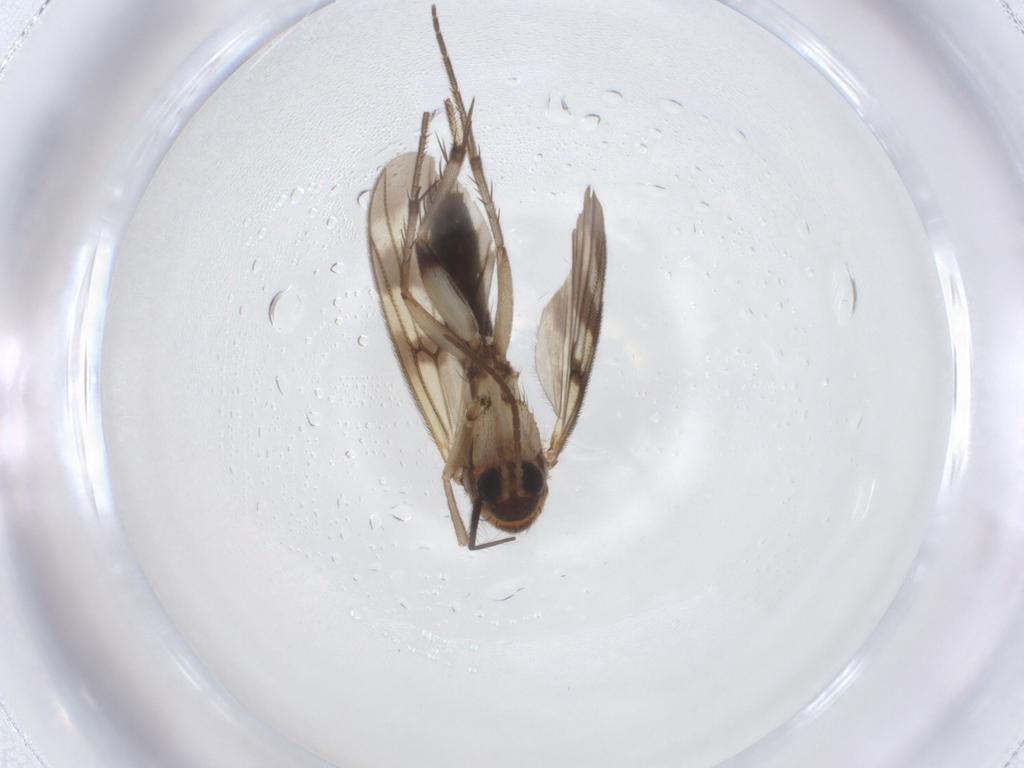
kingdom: Animalia
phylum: Arthropoda
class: Insecta
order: Diptera
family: Mycetophilidae
